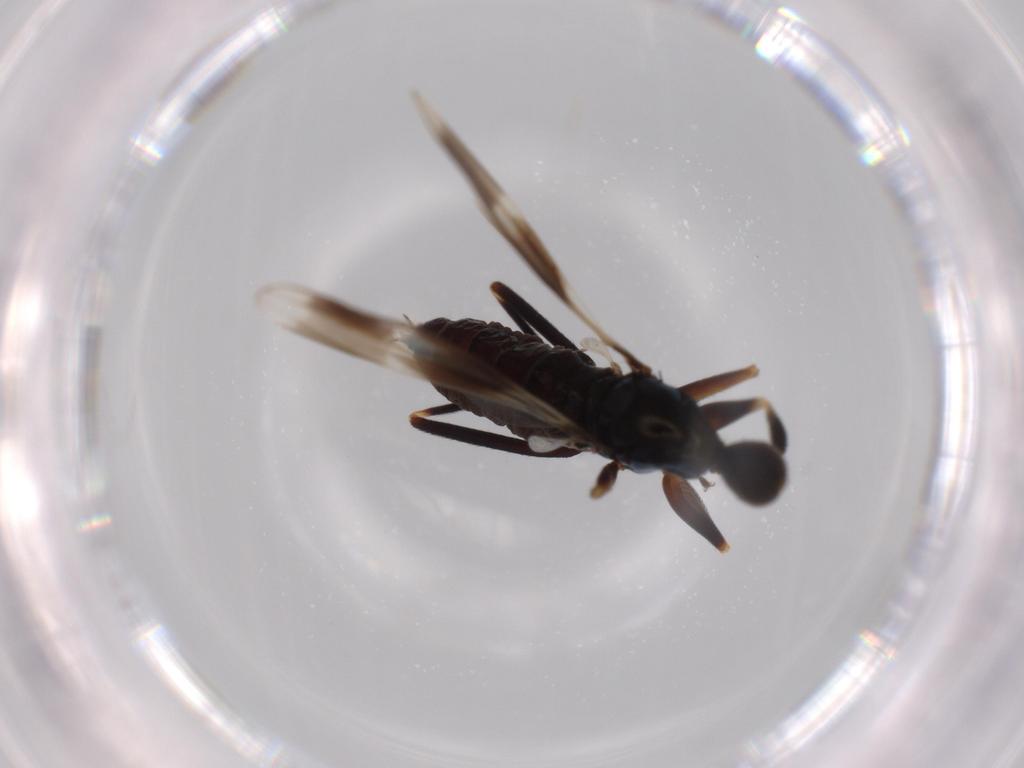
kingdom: Animalia
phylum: Arthropoda
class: Insecta
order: Diptera
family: Hybotidae
